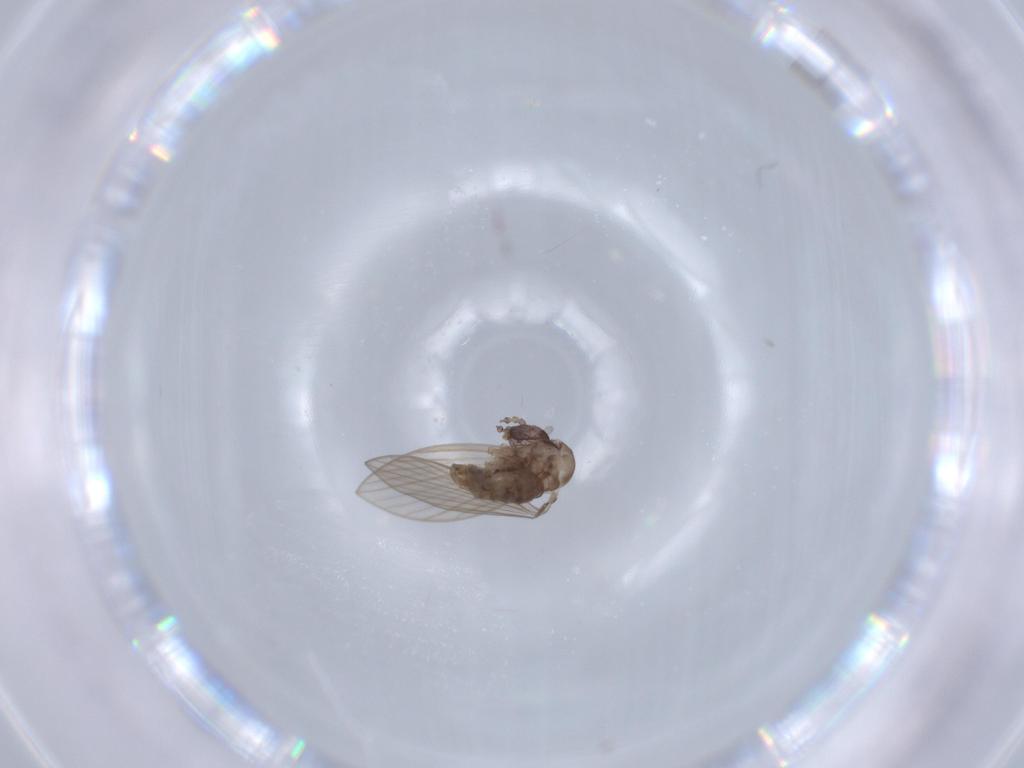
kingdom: Animalia
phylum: Arthropoda
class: Insecta
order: Diptera
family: Psychodidae
